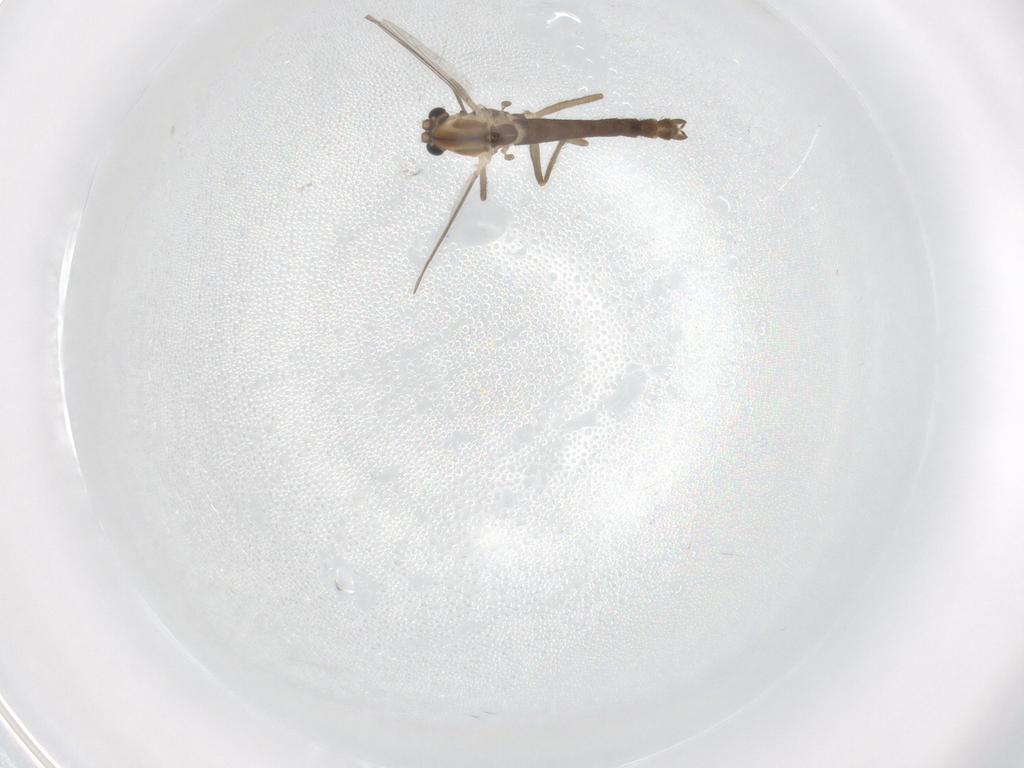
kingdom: Animalia
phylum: Arthropoda
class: Insecta
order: Diptera
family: Chironomidae
